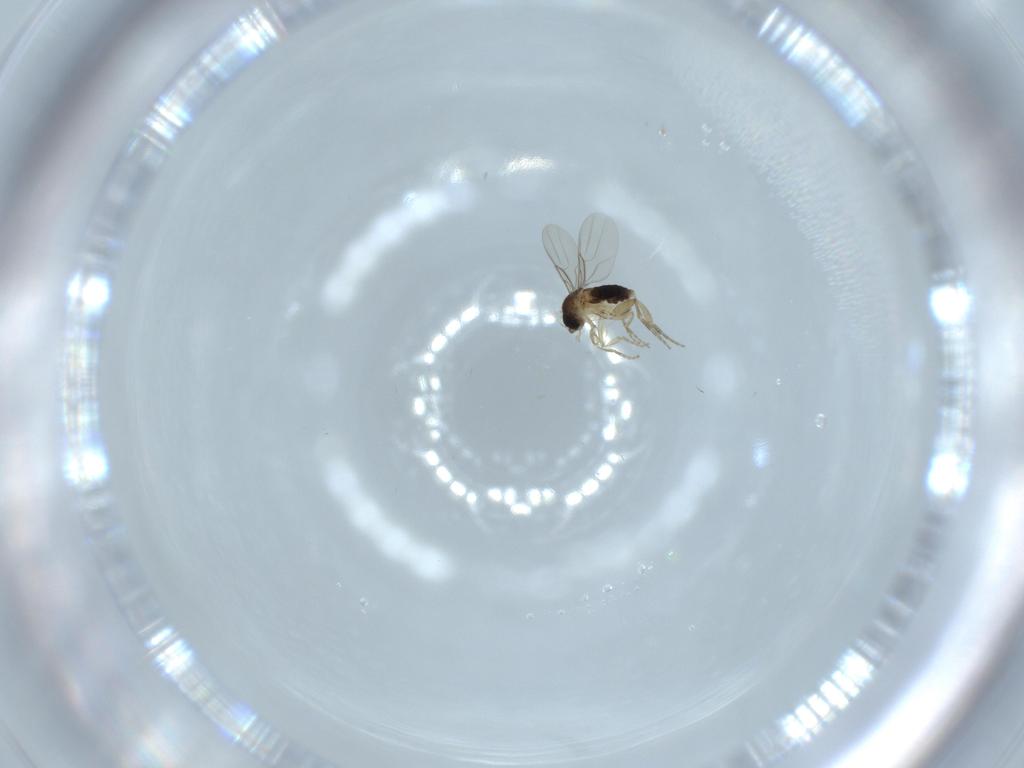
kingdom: Animalia
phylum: Arthropoda
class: Insecta
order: Diptera
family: Phoridae
